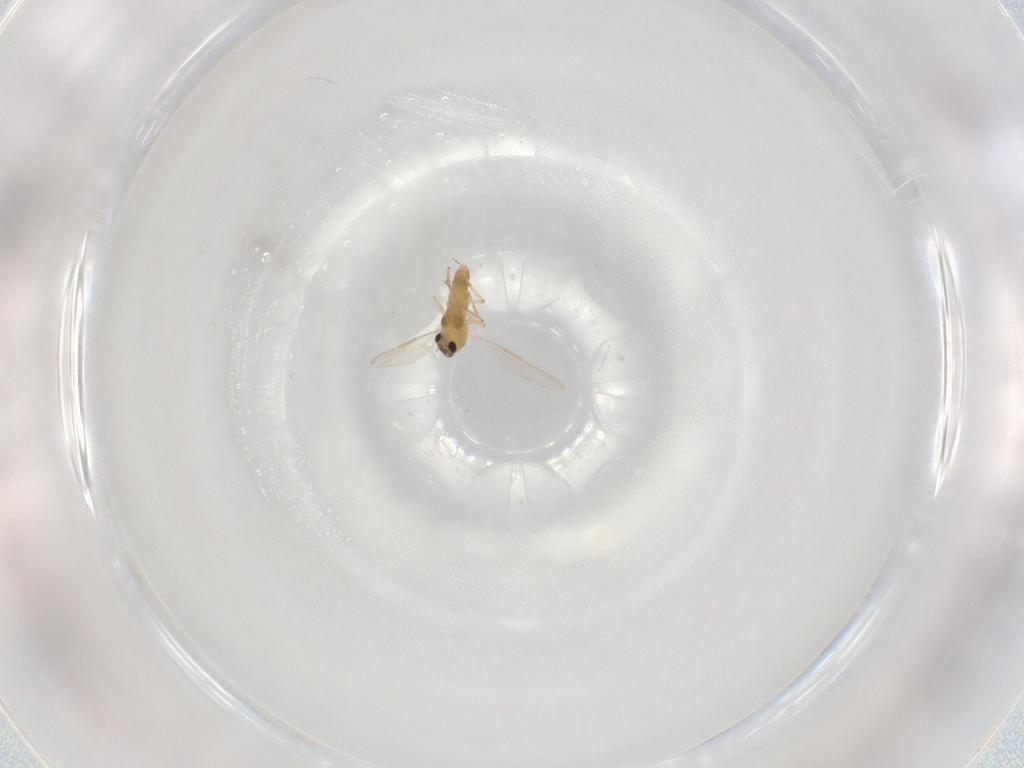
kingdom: Animalia
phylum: Arthropoda
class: Insecta
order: Diptera
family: Chironomidae
